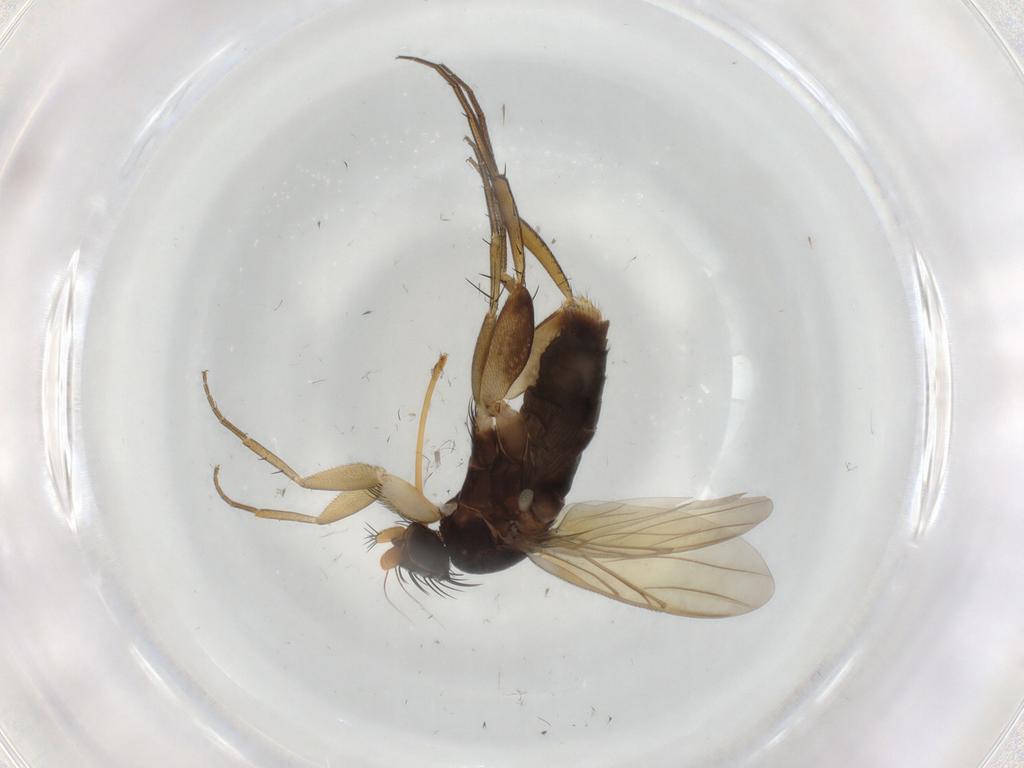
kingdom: Animalia
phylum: Arthropoda
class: Insecta
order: Diptera
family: Phoridae
